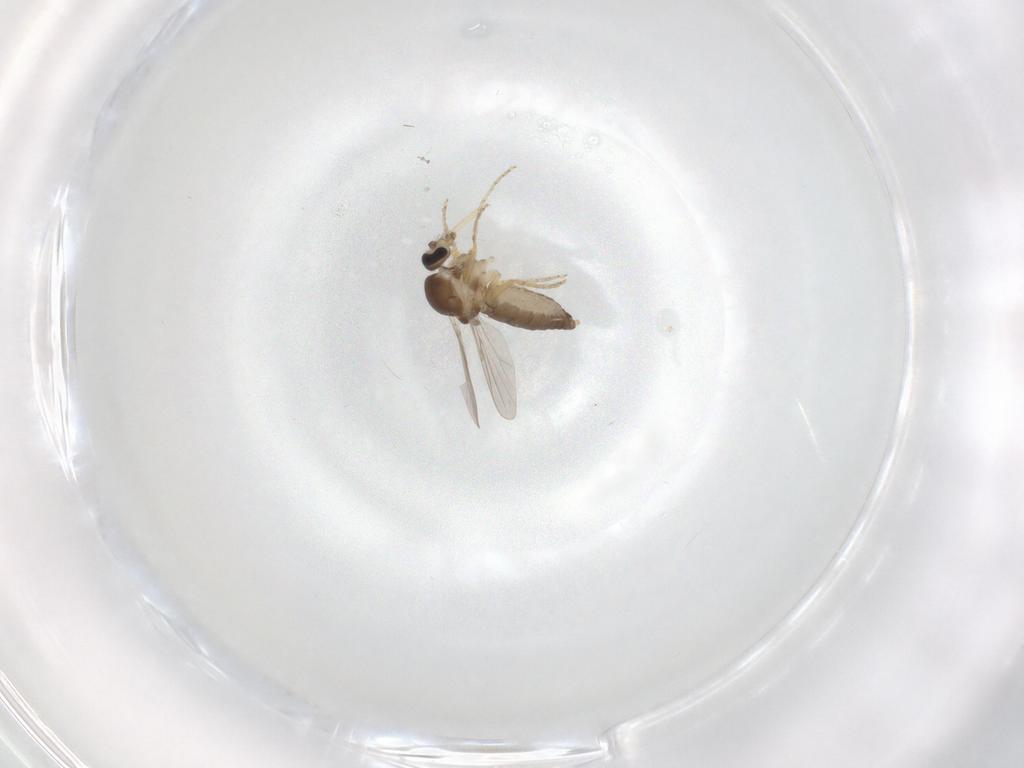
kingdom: Animalia
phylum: Arthropoda
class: Insecta
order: Diptera
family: Ceratopogonidae
